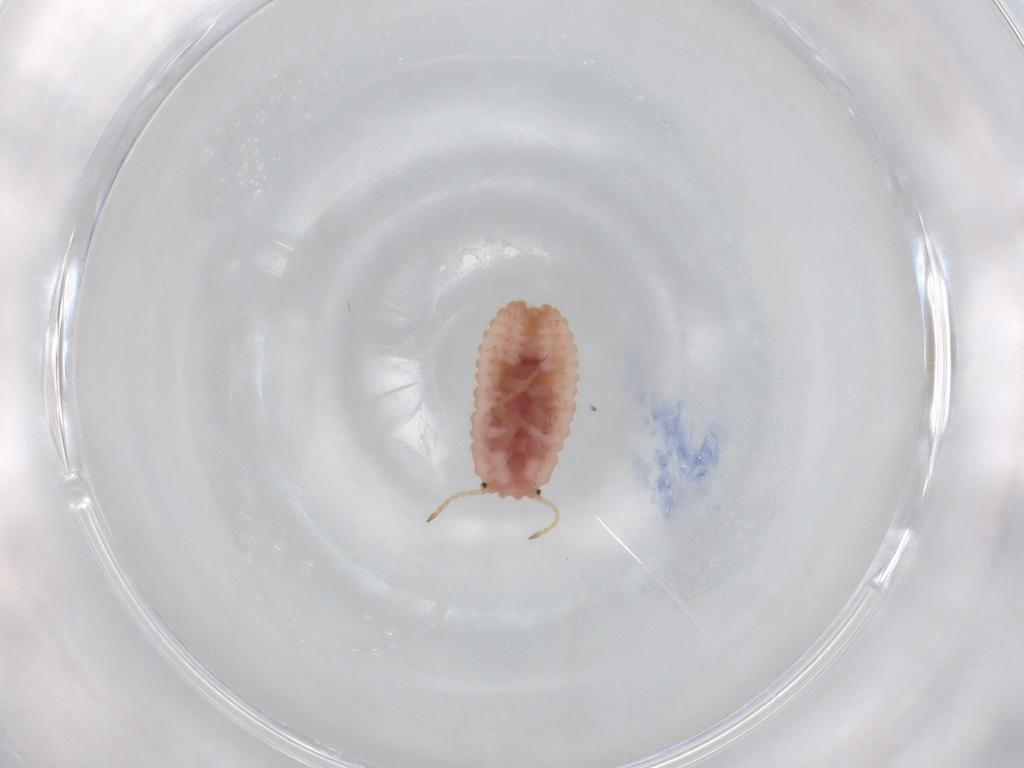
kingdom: Animalia
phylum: Arthropoda
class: Insecta
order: Hemiptera
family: Coccoidea_incertae_sedis
